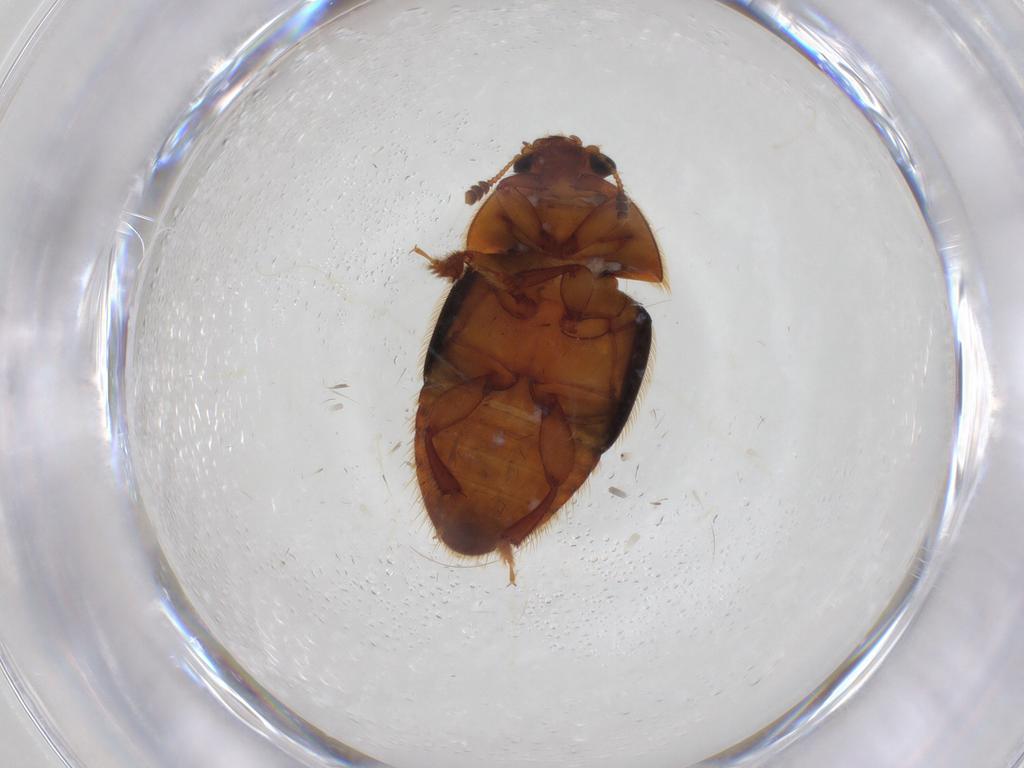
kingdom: Animalia
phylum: Arthropoda
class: Insecta
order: Coleoptera
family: Nitidulidae
